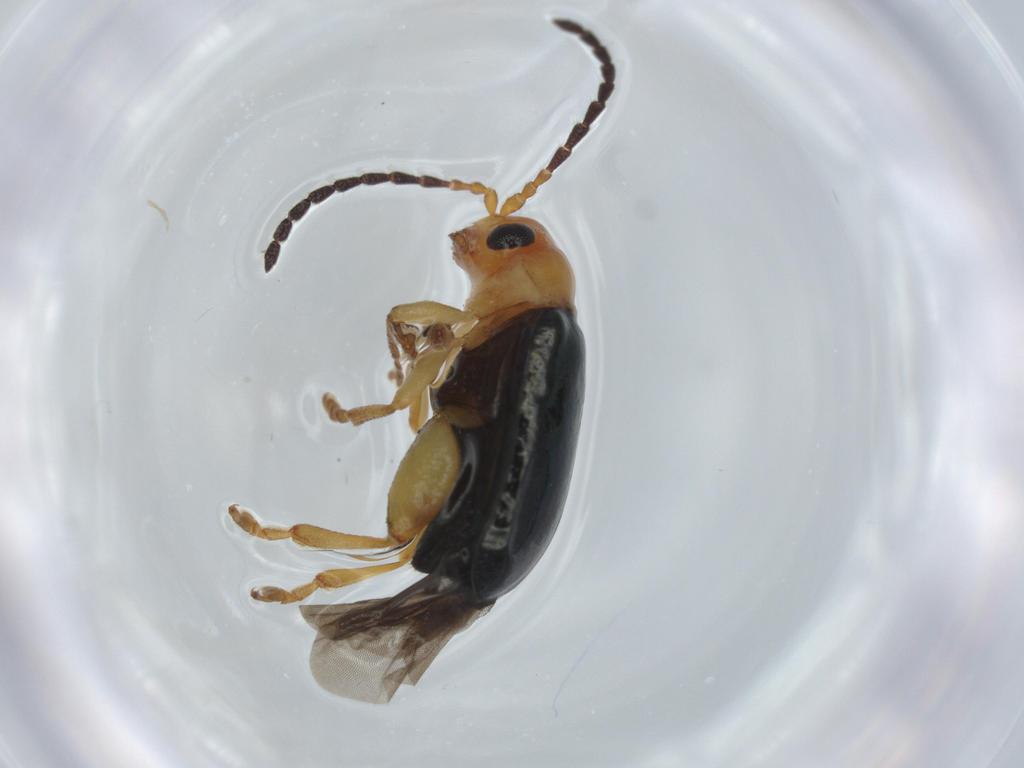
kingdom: Animalia
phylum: Arthropoda
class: Insecta
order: Coleoptera
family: Chrysomelidae
